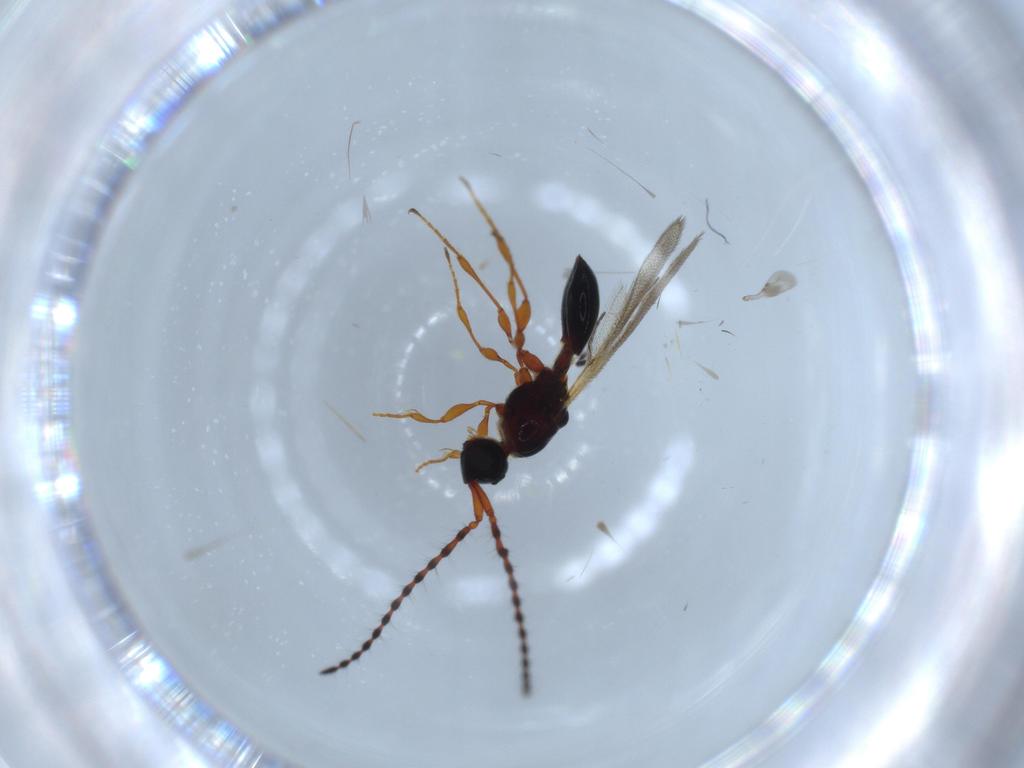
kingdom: Animalia
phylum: Arthropoda
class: Insecta
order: Hymenoptera
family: Diapriidae
